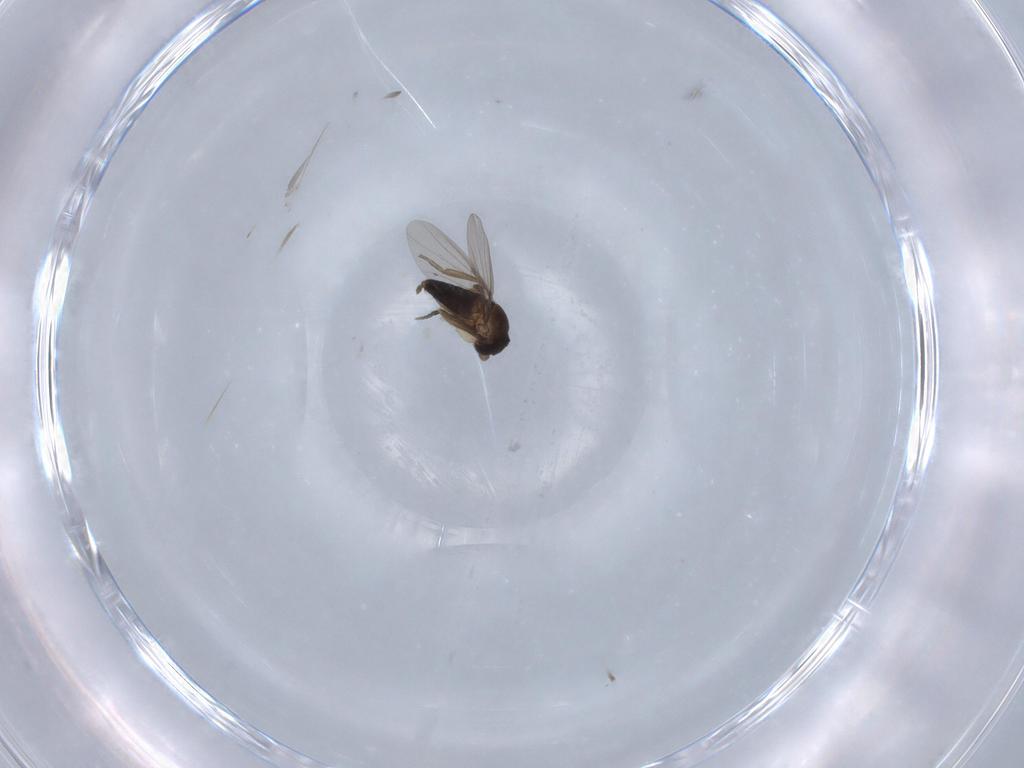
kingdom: Animalia
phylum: Arthropoda
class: Insecta
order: Diptera
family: Phoridae
